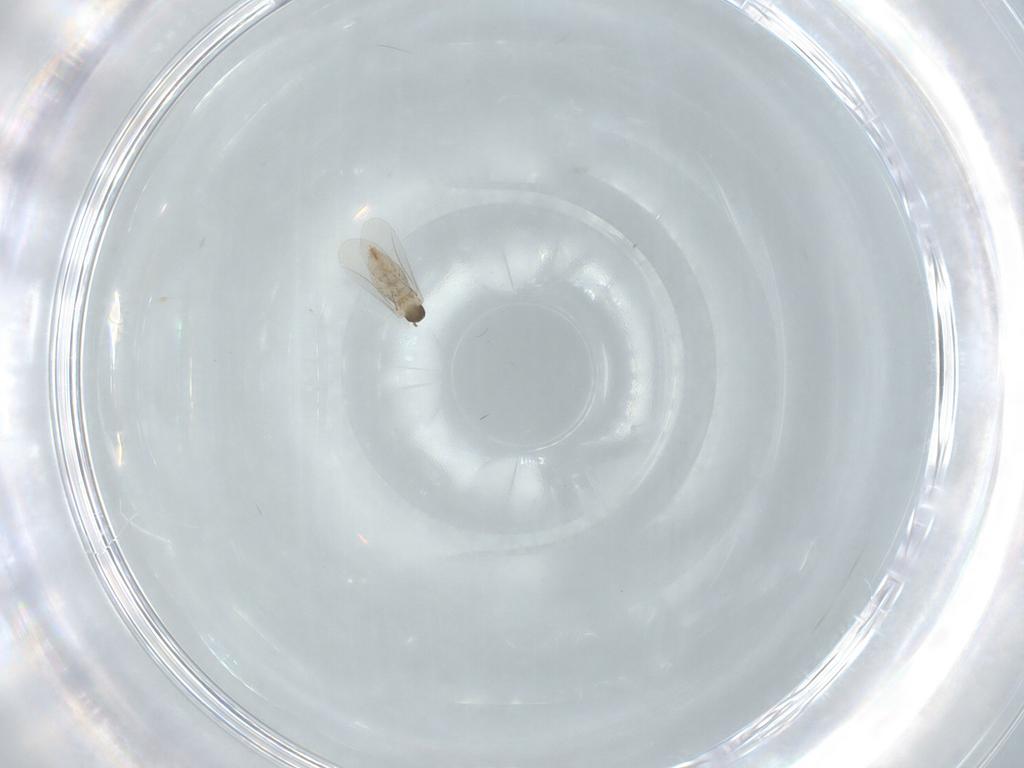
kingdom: Animalia
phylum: Arthropoda
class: Insecta
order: Diptera
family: Cecidomyiidae
